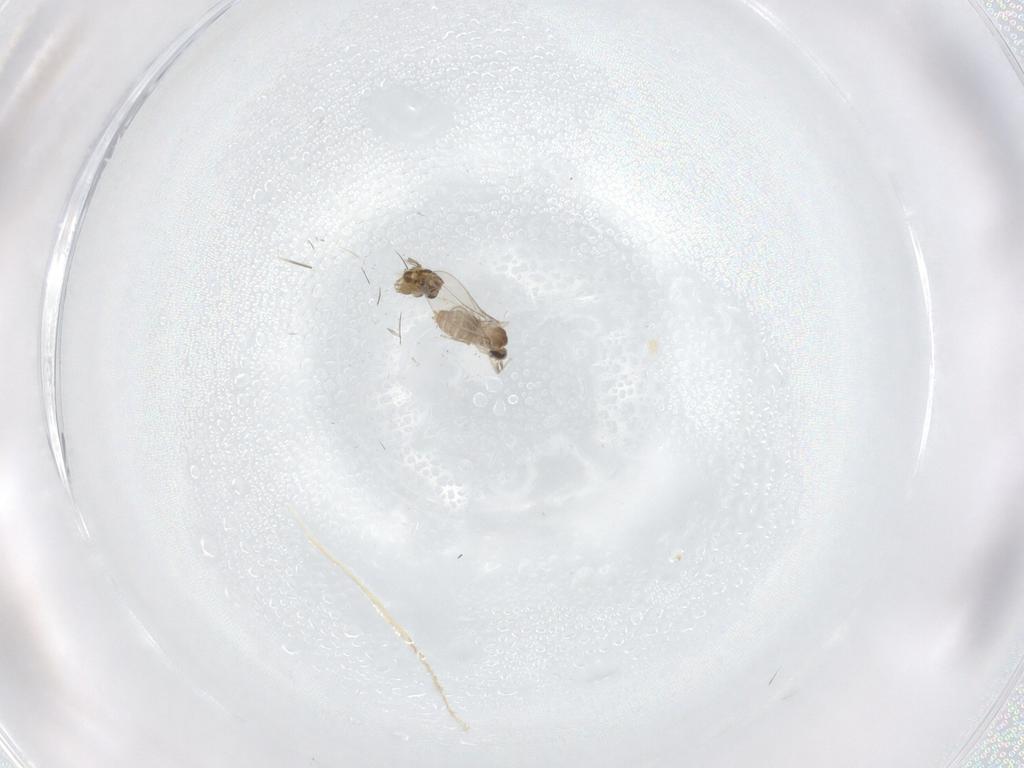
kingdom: Animalia
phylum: Arthropoda
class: Insecta
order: Diptera
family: Cecidomyiidae
